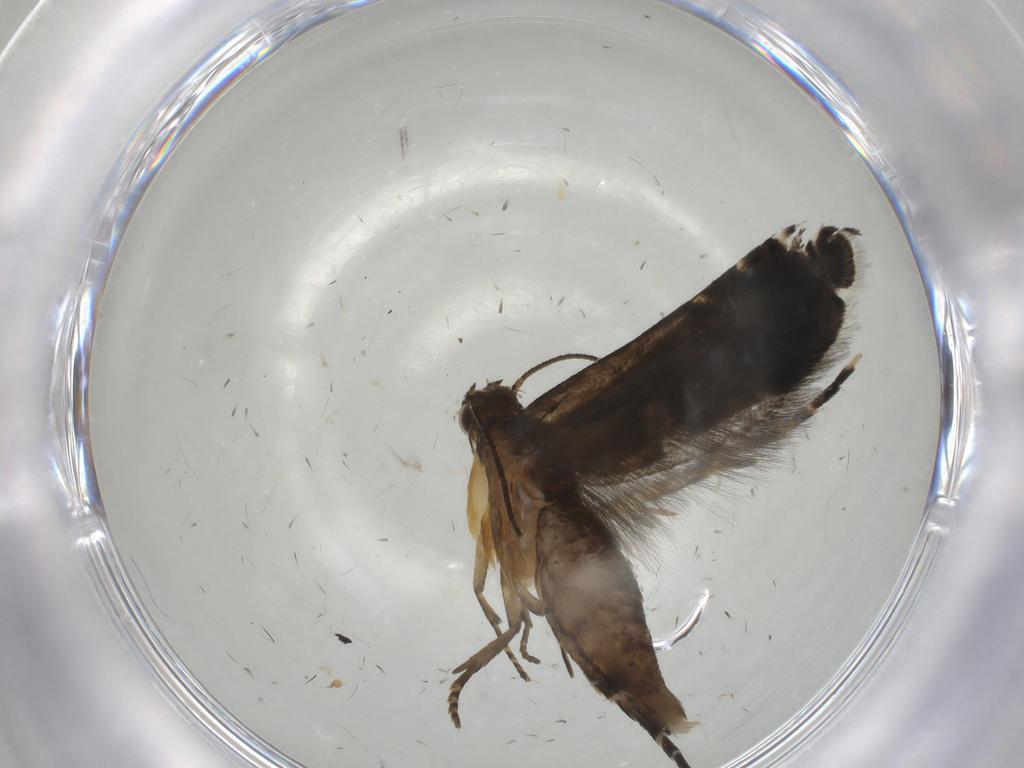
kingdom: Animalia
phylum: Arthropoda
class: Insecta
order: Lepidoptera
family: Glyphipterigidae
